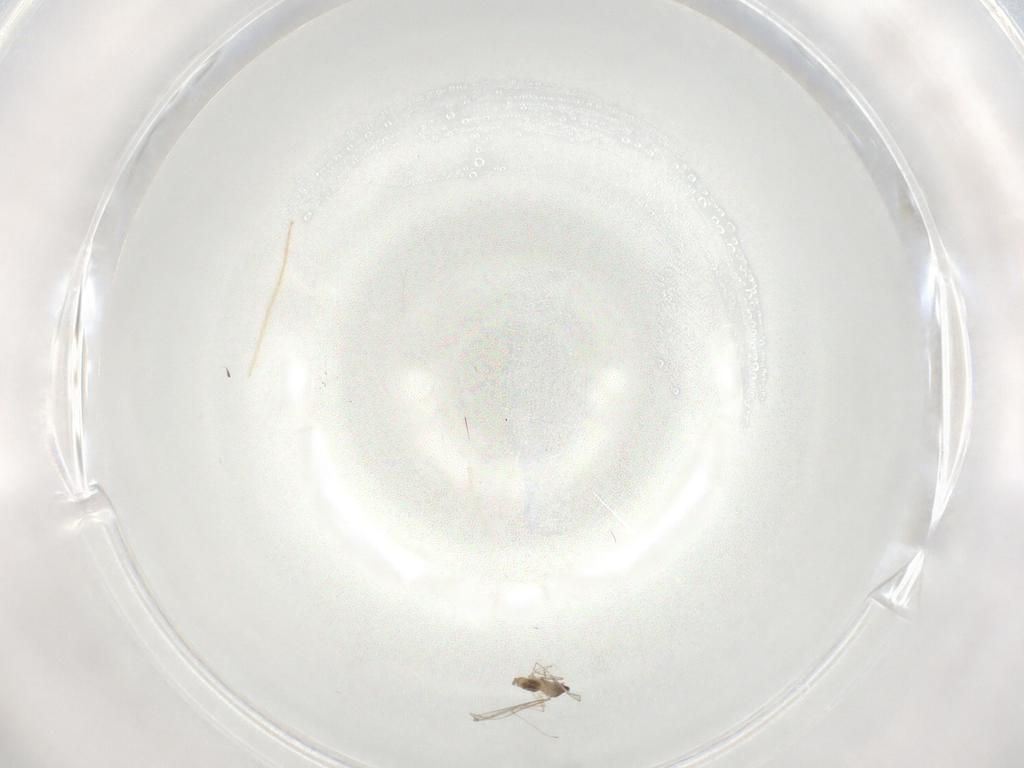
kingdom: Animalia
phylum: Arthropoda
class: Insecta
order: Diptera
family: Cecidomyiidae
